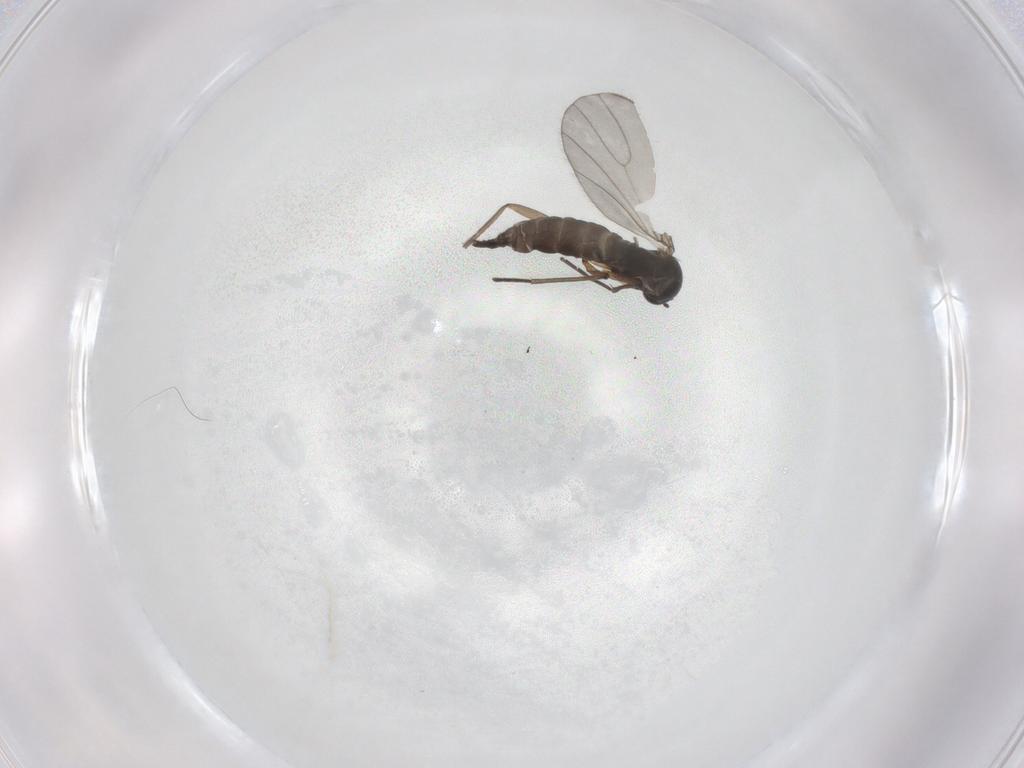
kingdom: Animalia
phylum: Arthropoda
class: Insecta
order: Diptera
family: Sciaridae
